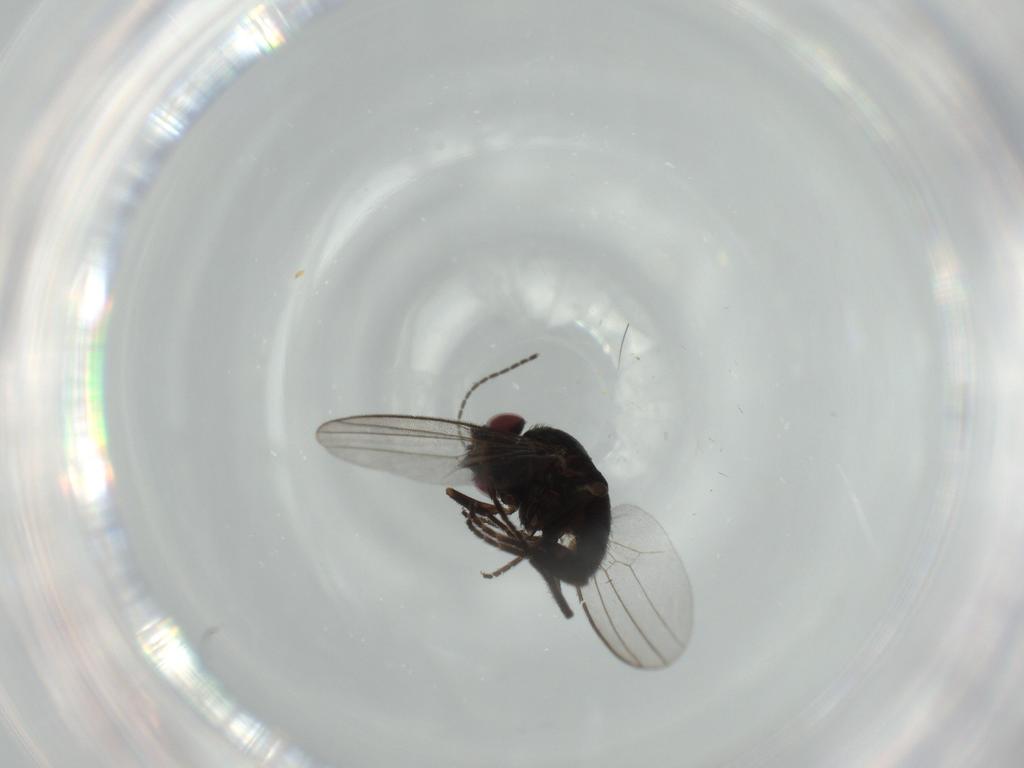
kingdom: Animalia
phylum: Arthropoda
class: Insecta
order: Diptera
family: Milichiidae
